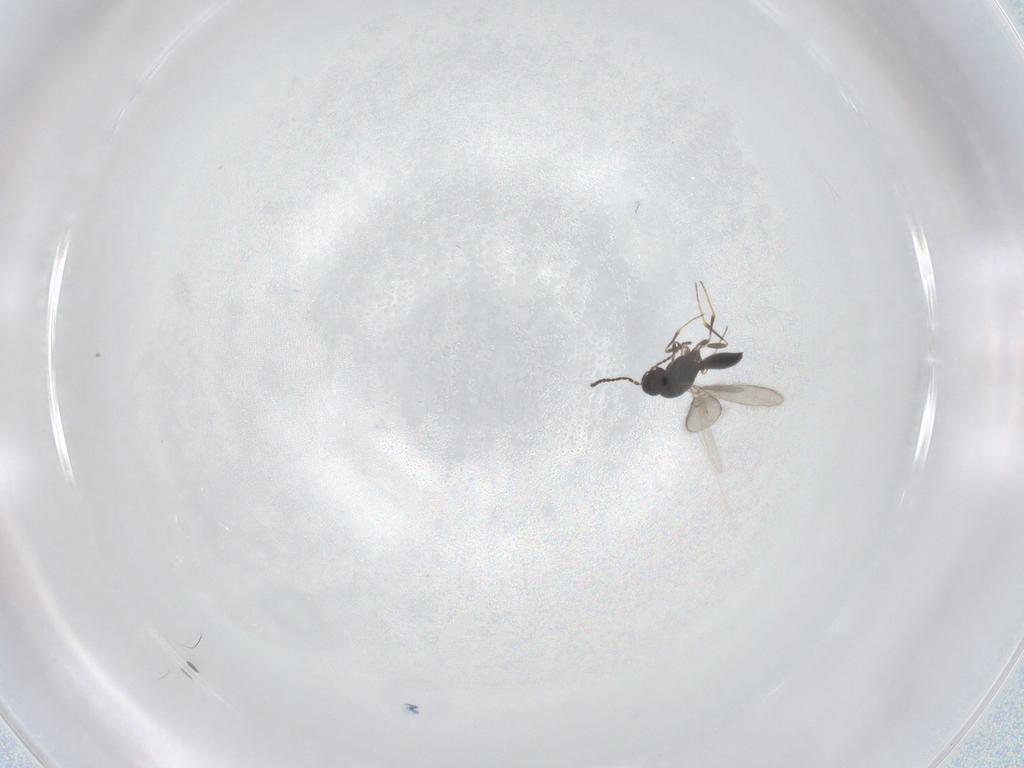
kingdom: Animalia
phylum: Arthropoda
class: Insecta
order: Hymenoptera
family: Scelionidae
